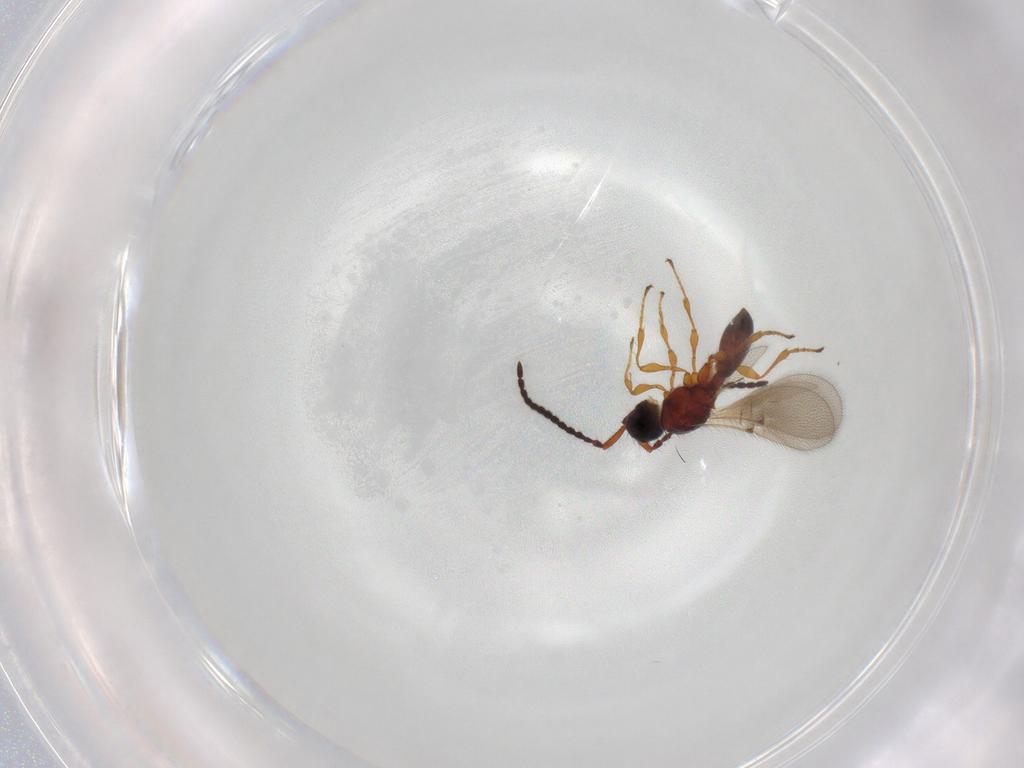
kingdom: Animalia
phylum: Arthropoda
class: Insecta
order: Hymenoptera
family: Diapriidae
